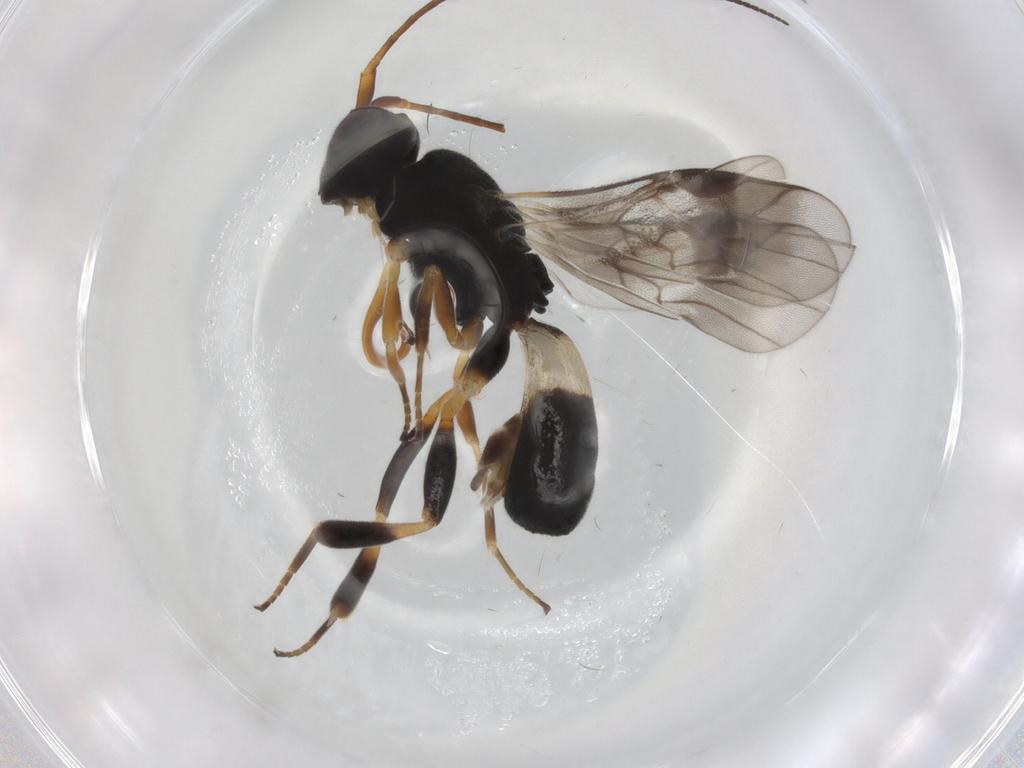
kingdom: Animalia
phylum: Arthropoda
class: Insecta
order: Hymenoptera
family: Braconidae
